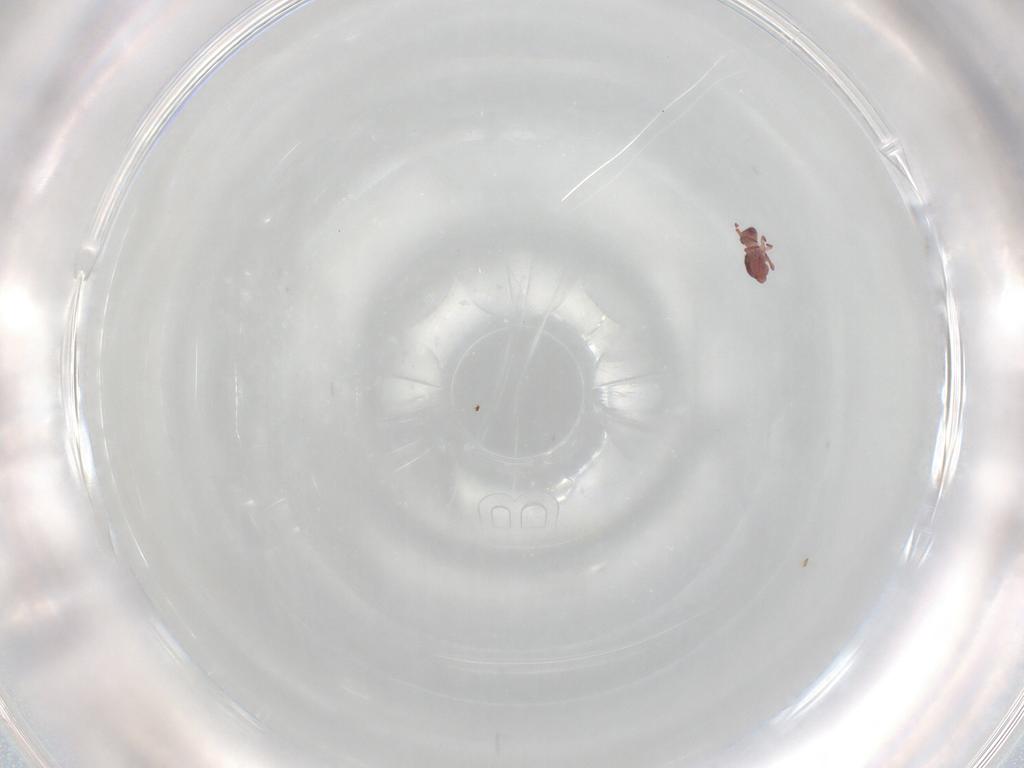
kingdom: Animalia
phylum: Arthropoda
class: Collembola
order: Symphypleona
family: Sminthurididae
